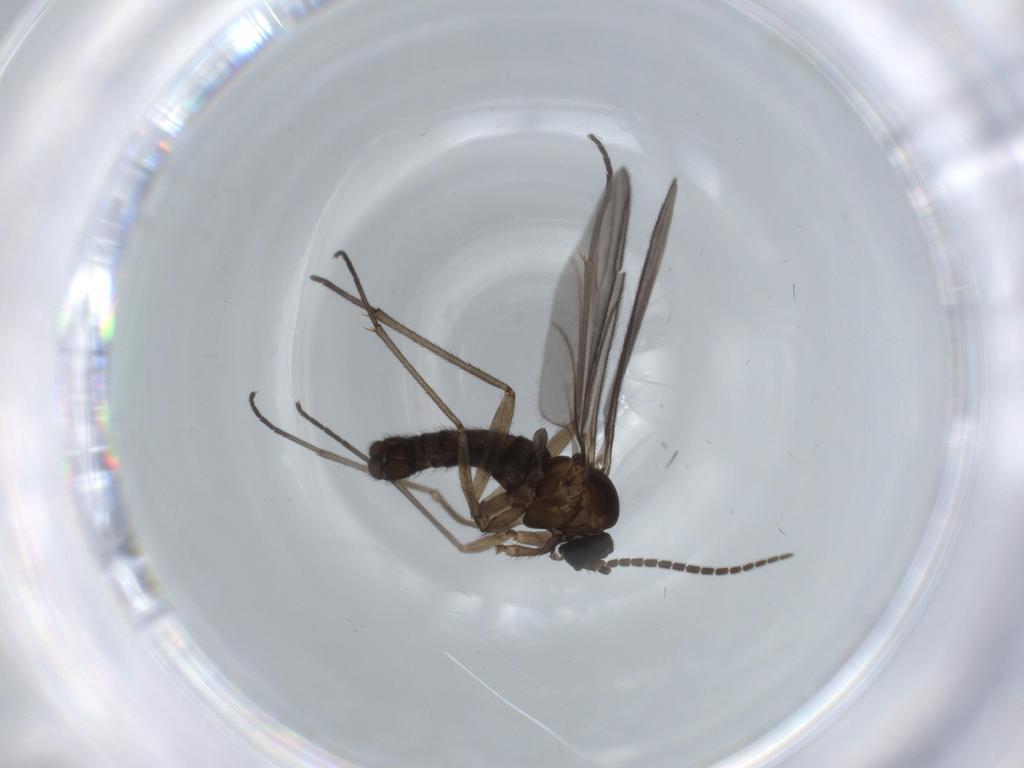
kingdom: Animalia
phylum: Arthropoda
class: Insecta
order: Diptera
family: Sciaridae
